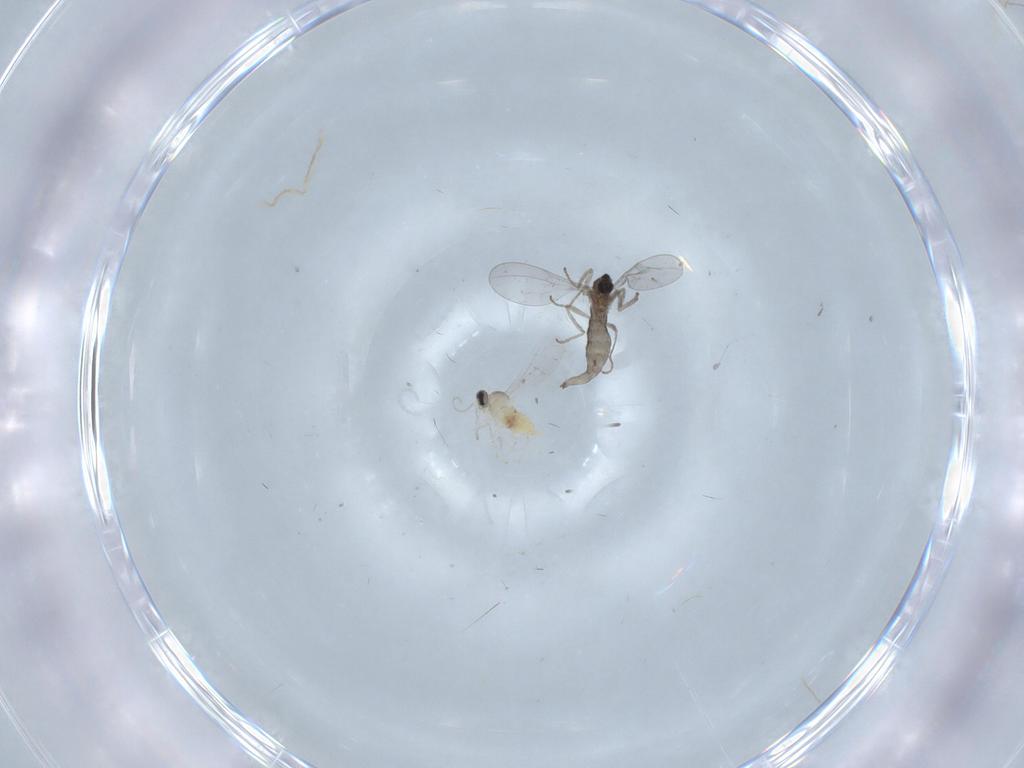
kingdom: Animalia
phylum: Arthropoda
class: Insecta
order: Diptera
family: Cecidomyiidae
